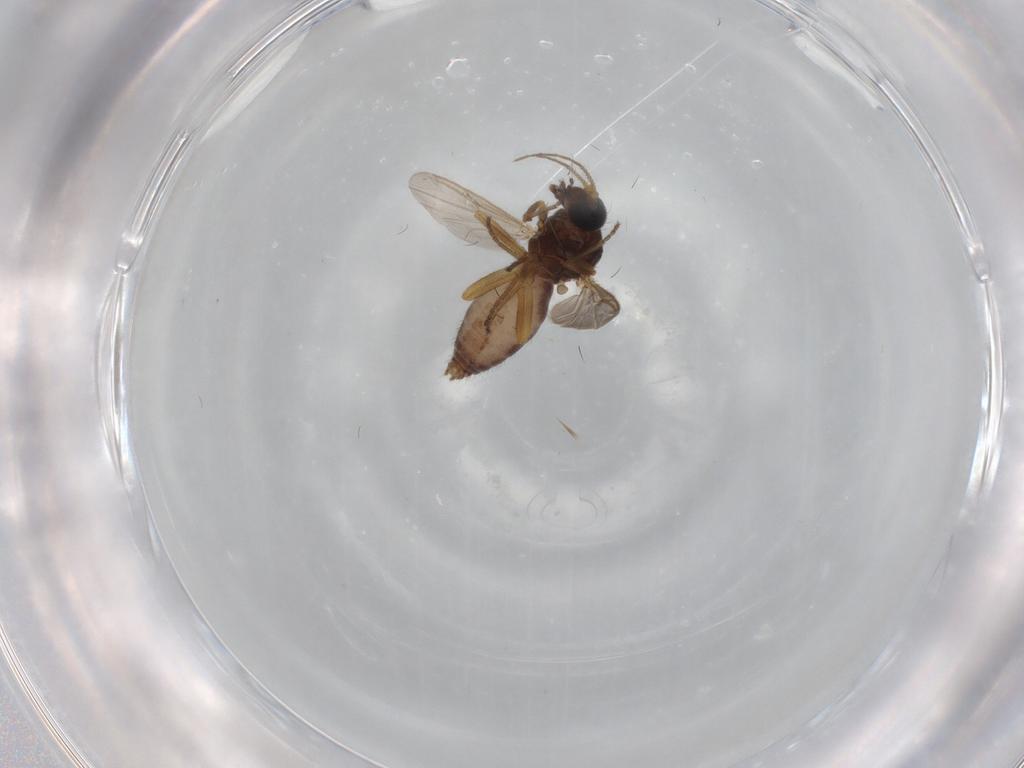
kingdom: Animalia
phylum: Arthropoda
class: Insecta
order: Diptera
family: Ceratopogonidae
